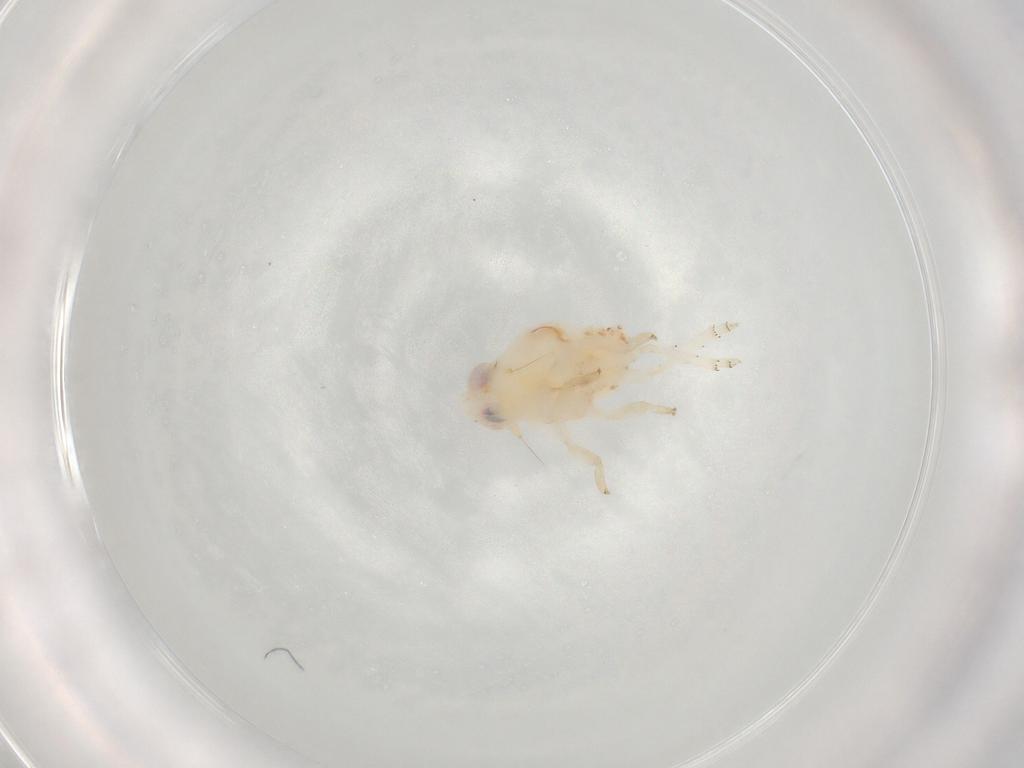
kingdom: Animalia
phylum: Arthropoda
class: Insecta
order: Hemiptera
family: Nogodinidae
